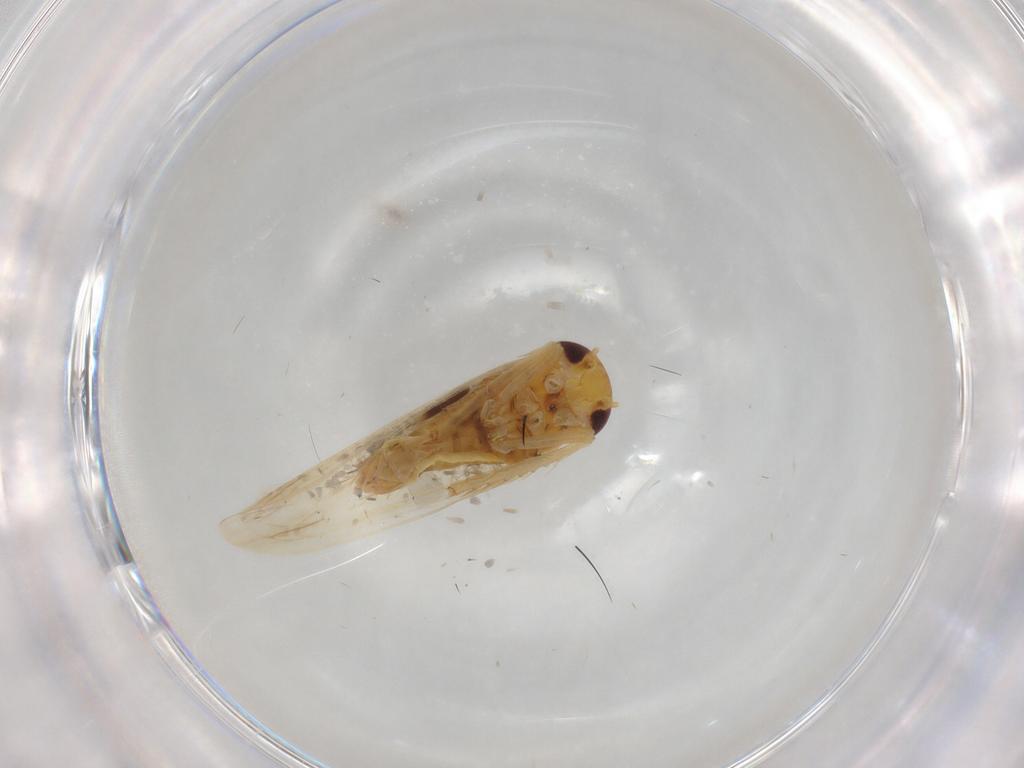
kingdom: Animalia
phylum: Arthropoda
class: Insecta
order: Hemiptera
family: Cicadellidae
